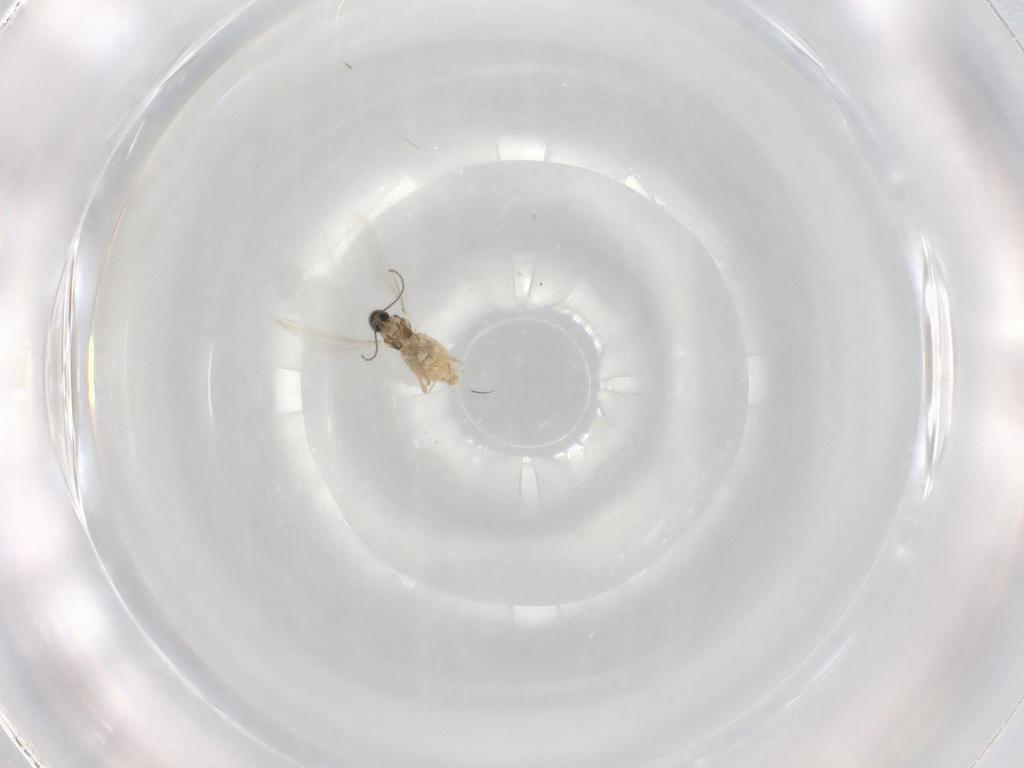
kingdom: Animalia
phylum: Arthropoda
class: Insecta
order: Diptera
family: Cecidomyiidae
